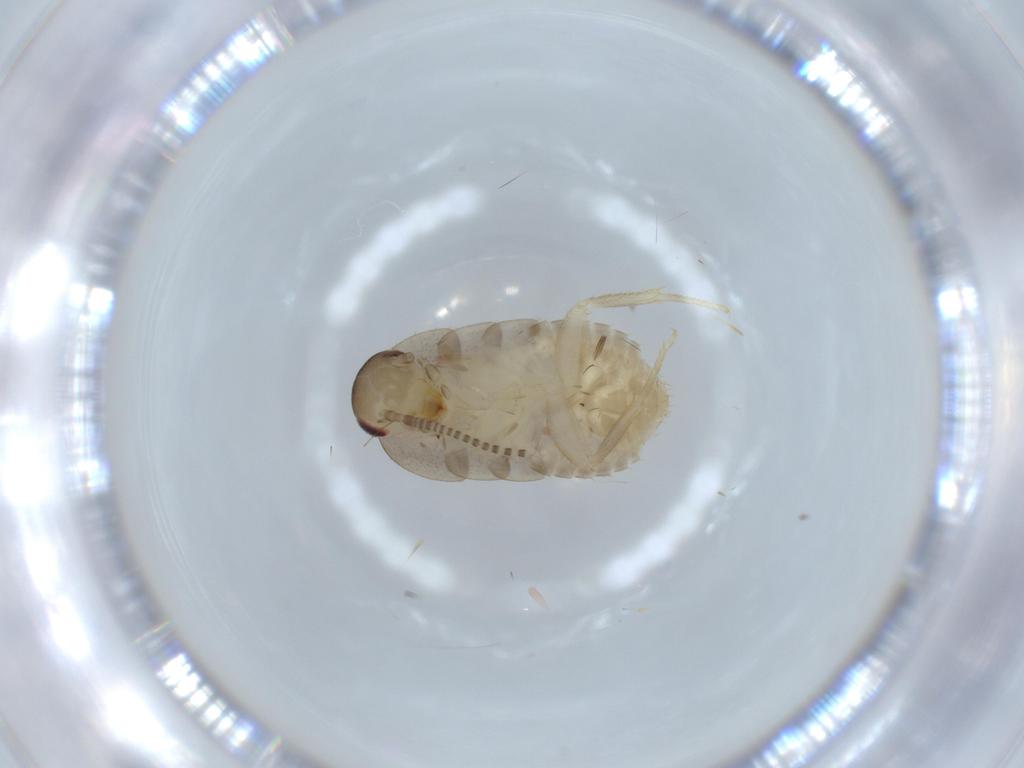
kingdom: Animalia
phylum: Arthropoda
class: Insecta
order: Blattodea
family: Ectobiidae
